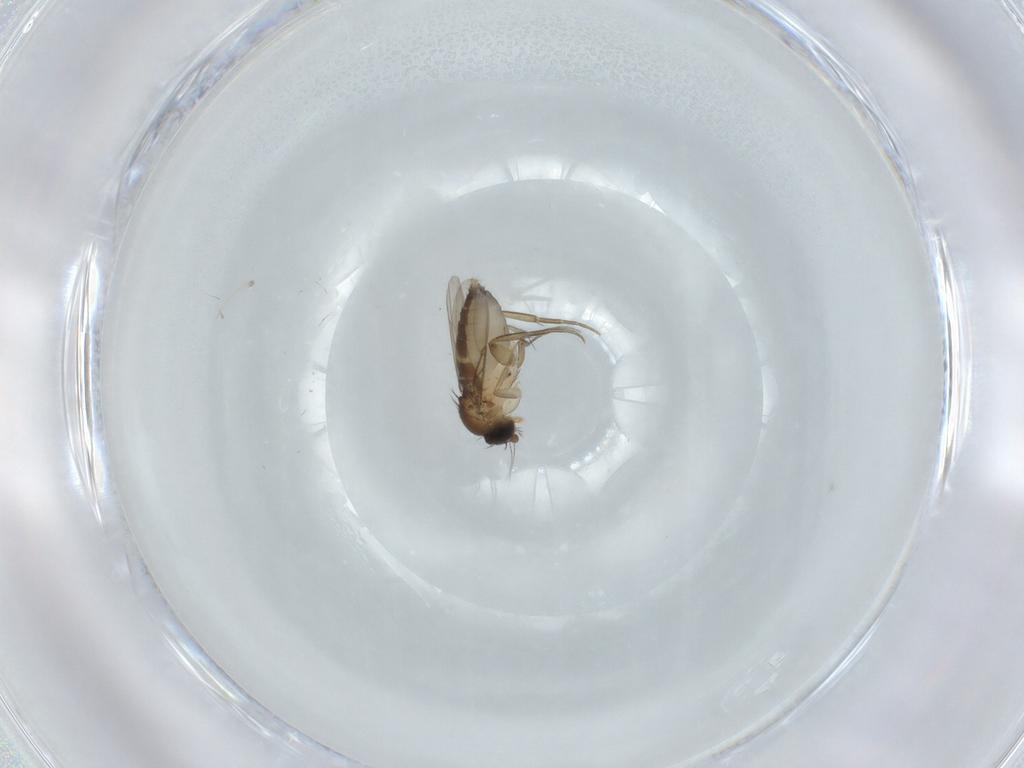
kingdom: Animalia
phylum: Arthropoda
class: Insecta
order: Diptera
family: Phoridae
